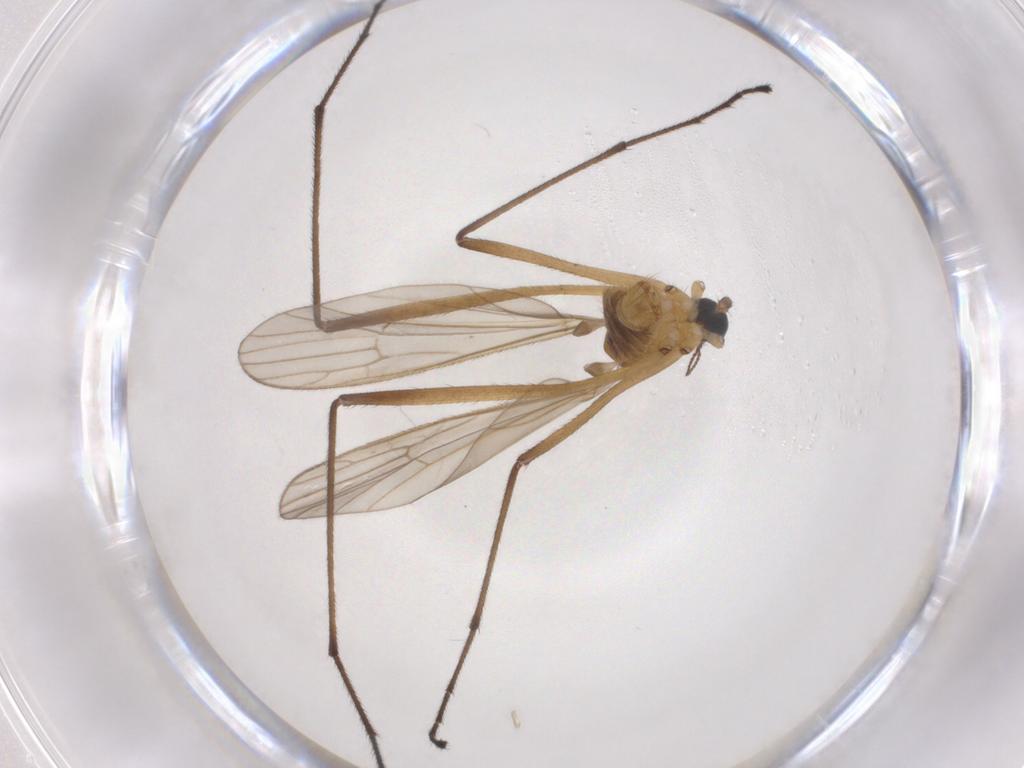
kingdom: Animalia
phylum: Arthropoda
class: Insecta
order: Diptera
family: Limoniidae
